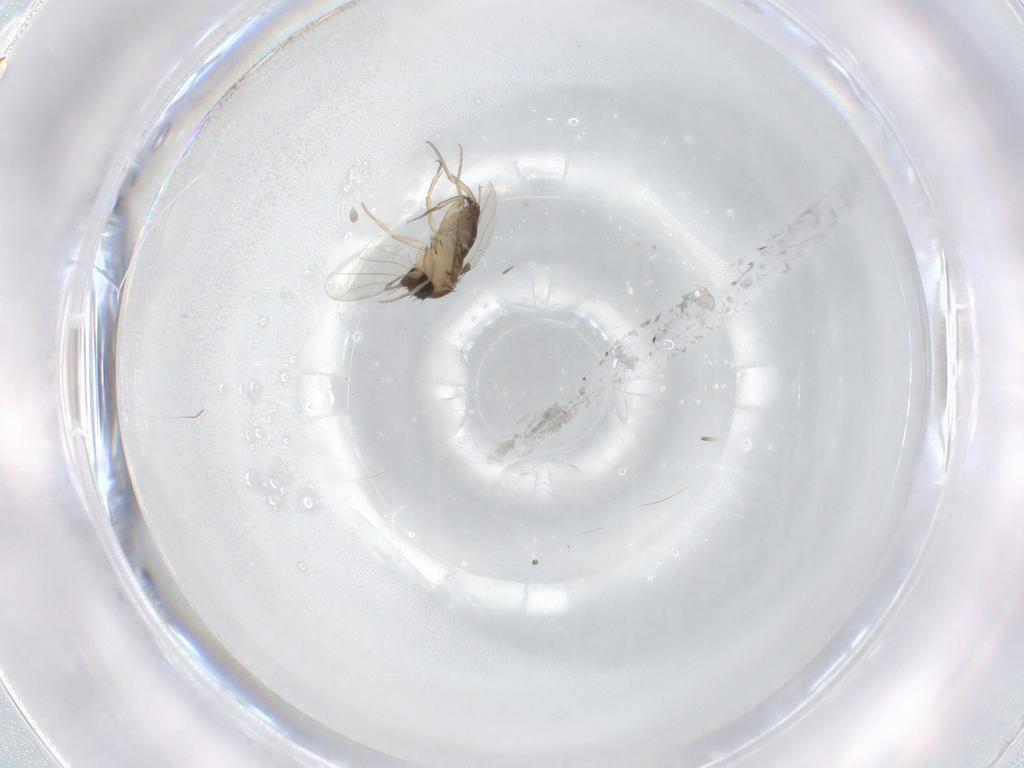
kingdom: Animalia
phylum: Arthropoda
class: Insecta
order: Diptera
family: Phoridae
